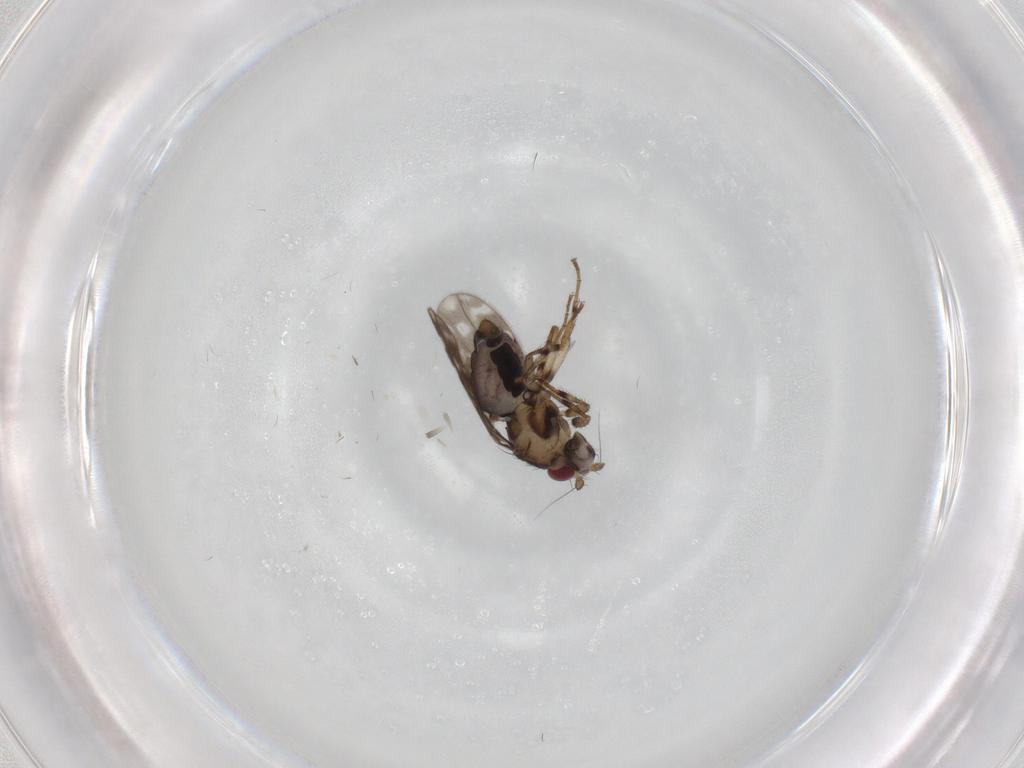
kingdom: Animalia
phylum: Arthropoda
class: Insecta
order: Diptera
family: Sphaeroceridae
